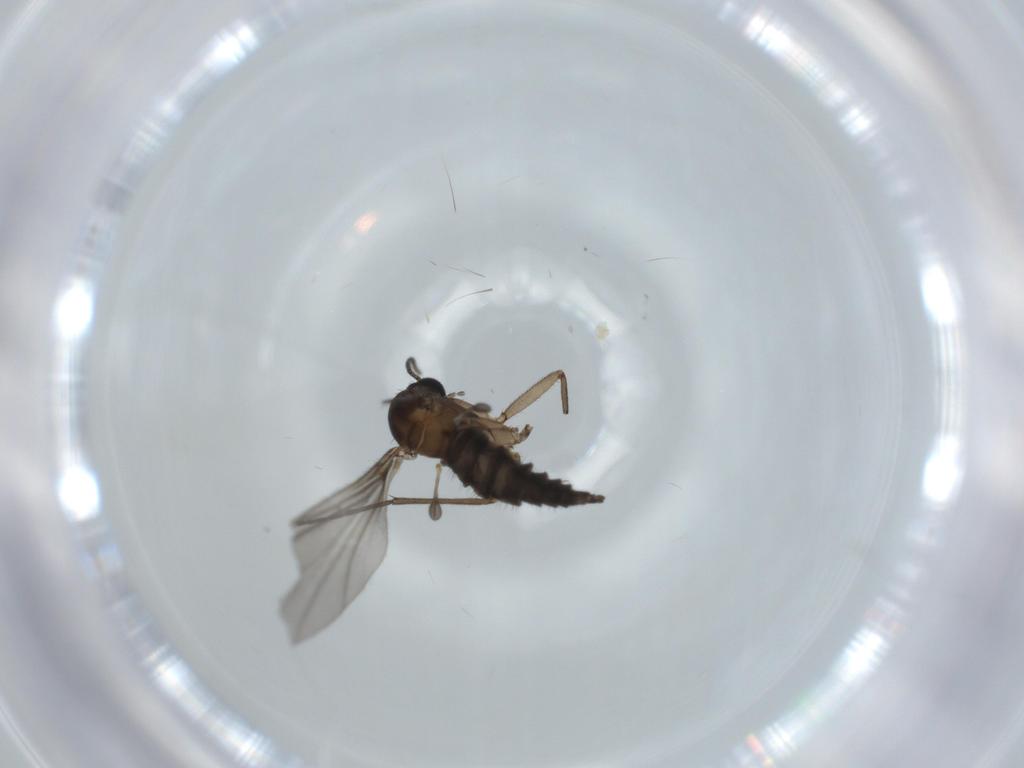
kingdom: Animalia
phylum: Arthropoda
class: Insecta
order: Diptera
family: Sciaridae
